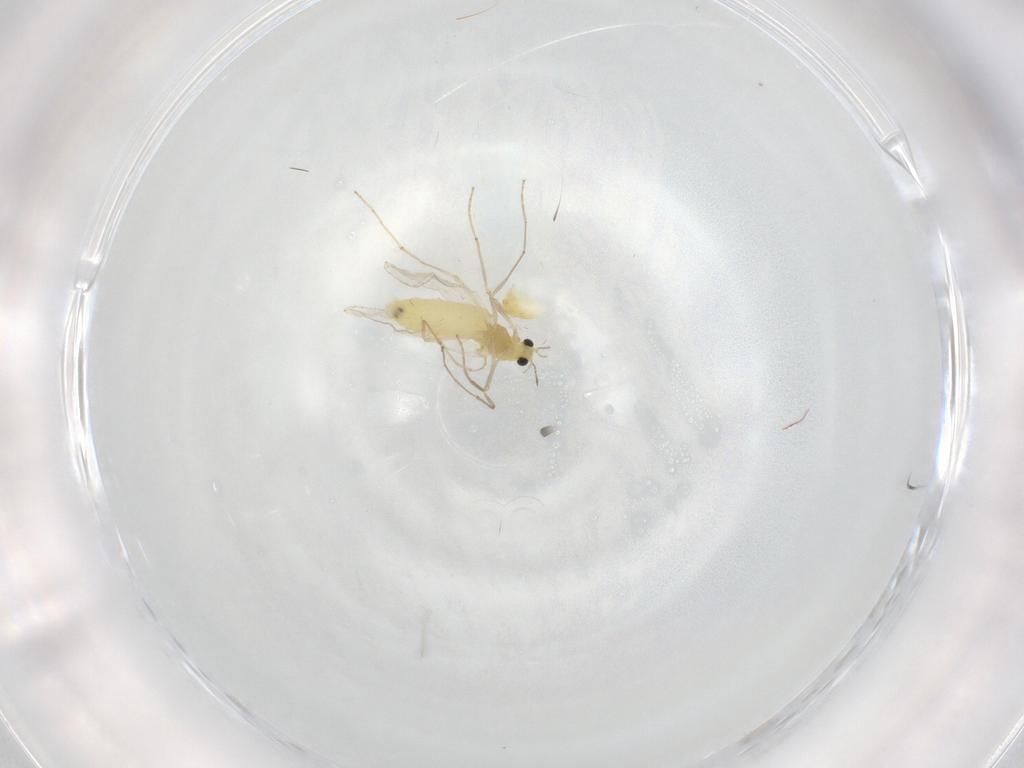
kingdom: Animalia
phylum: Arthropoda
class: Insecta
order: Diptera
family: Chironomidae
